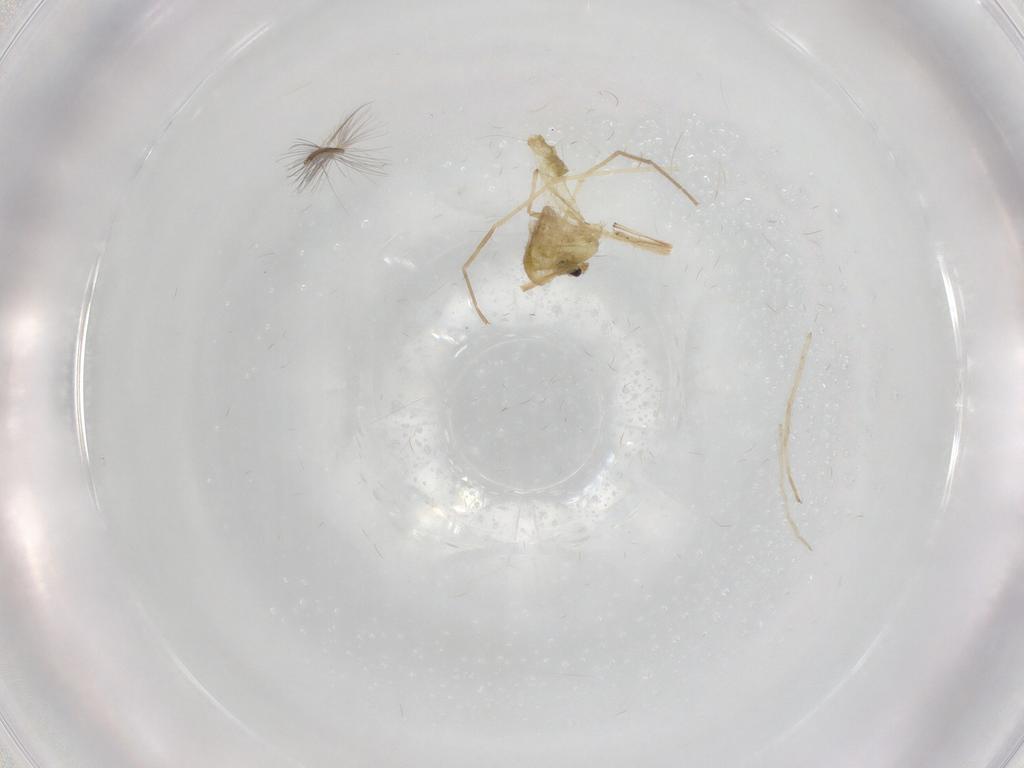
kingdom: Animalia
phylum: Arthropoda
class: Insecta
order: Diptera
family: Chironomidae
